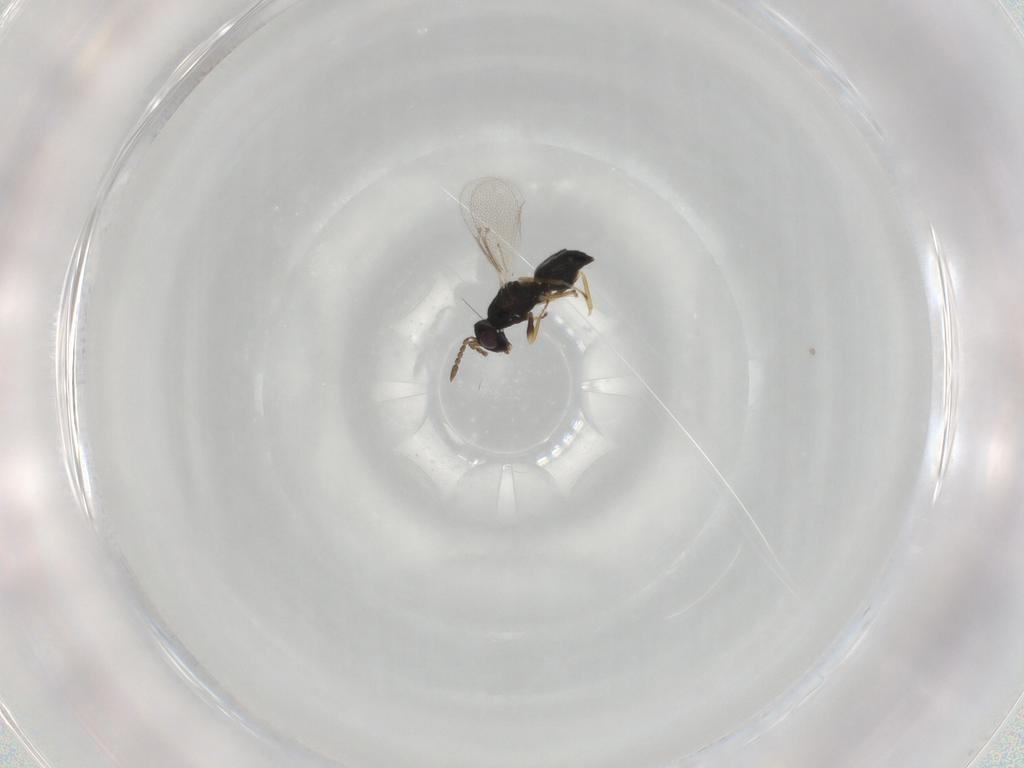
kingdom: Animalia
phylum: Arthropoda
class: Insecta
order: Hymenoptera
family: Eulophidae
